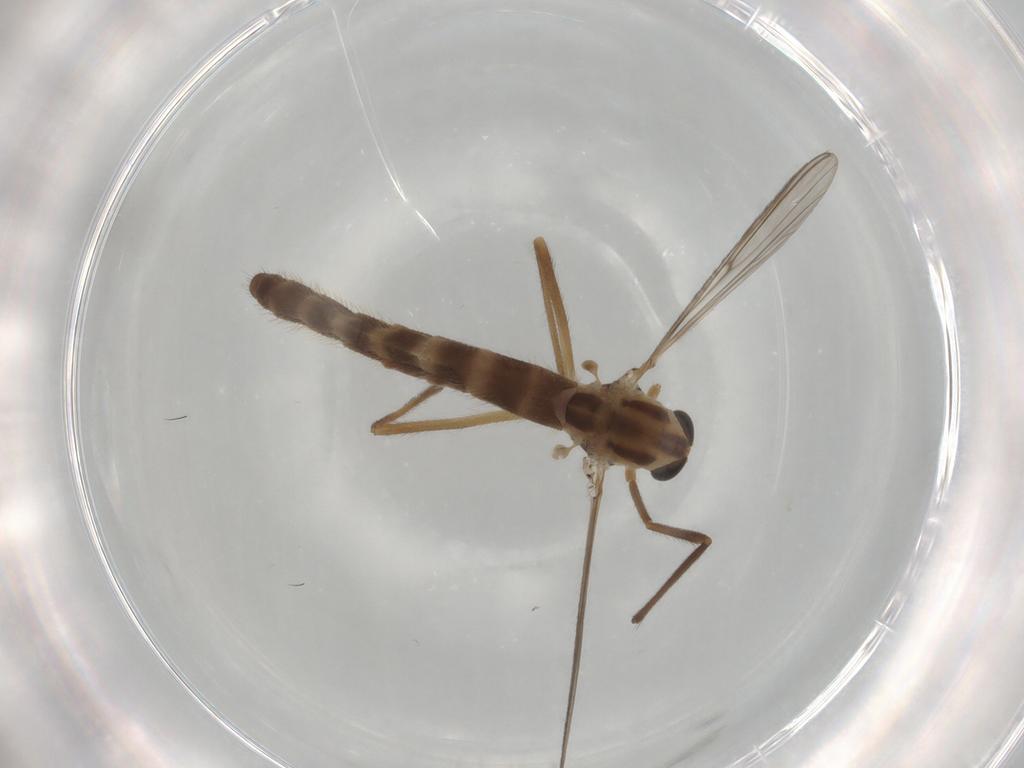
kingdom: Animalia
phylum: Arthropoda
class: Insecta
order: Diptera
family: Chironomidae
